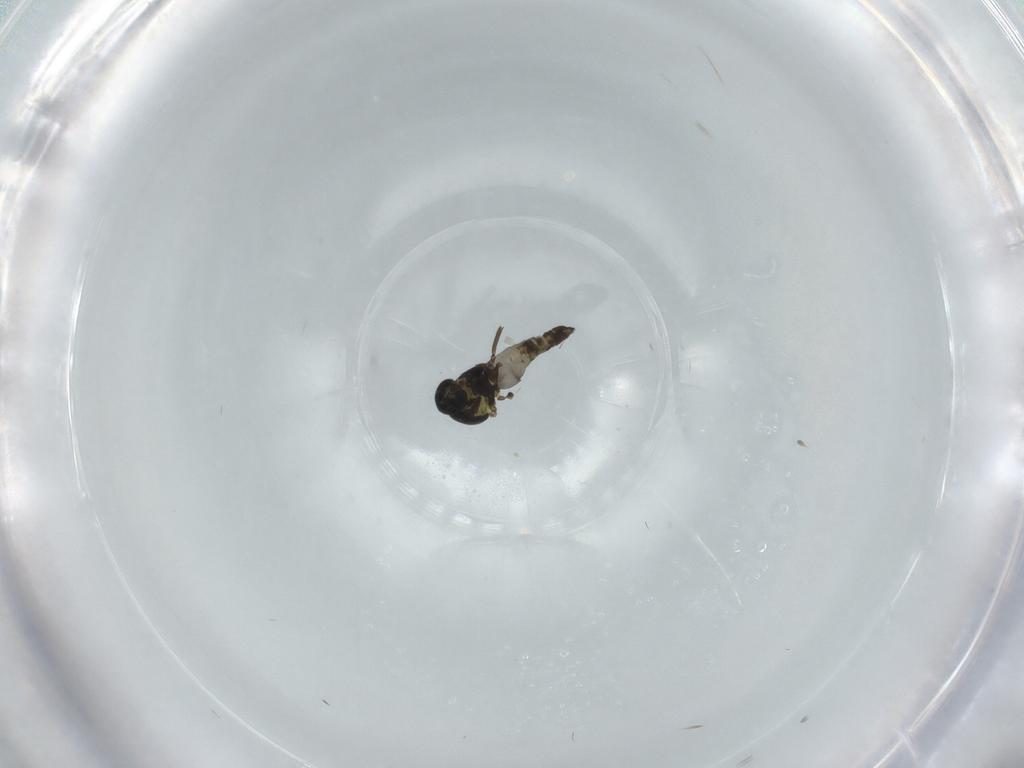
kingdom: Animalia
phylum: Arthropoda
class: Insecta
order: Diptera
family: Ceratopogonidae
